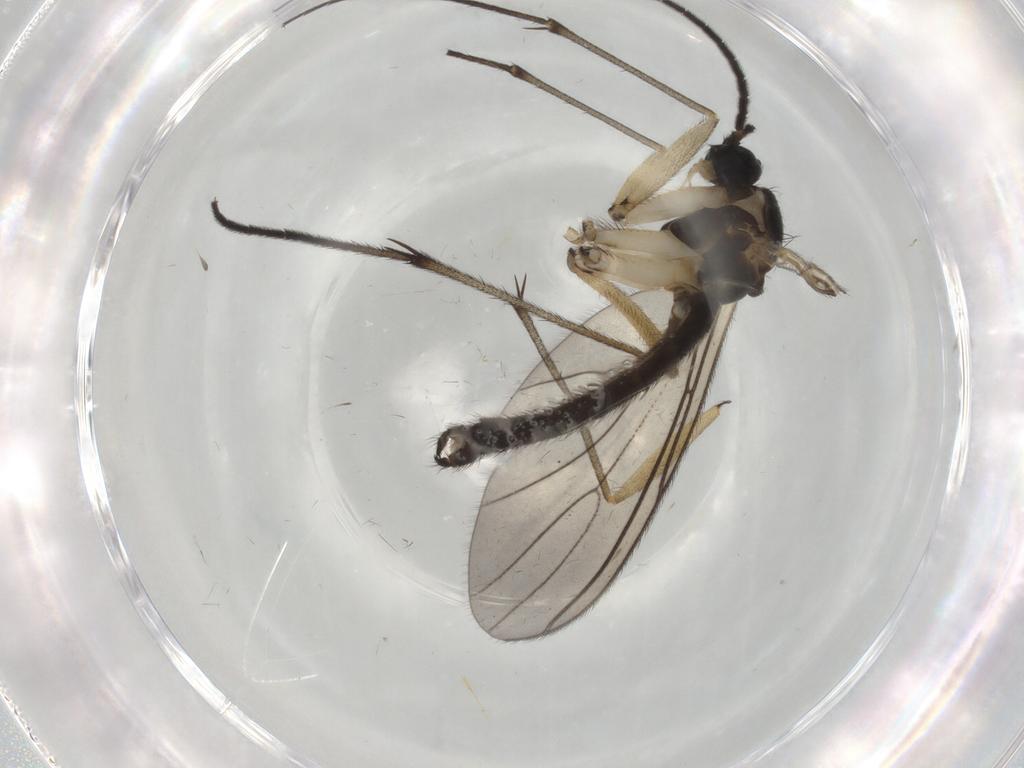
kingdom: Animalia
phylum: Arthropoda
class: Insecta
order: Diptera
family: Sciaridae
